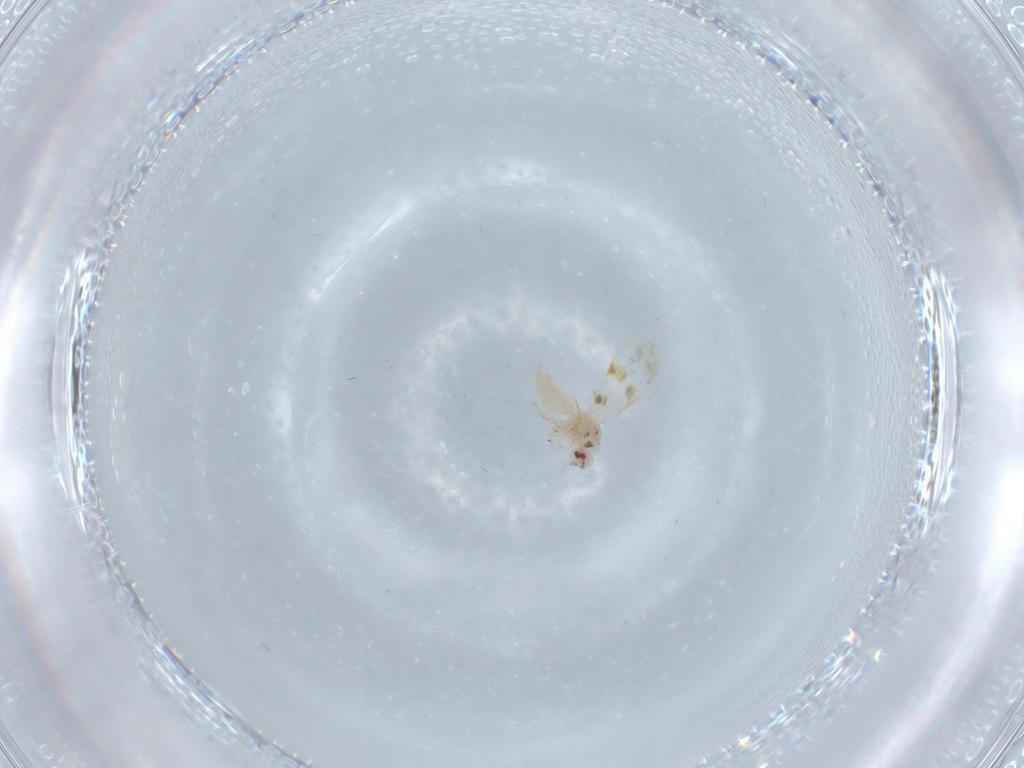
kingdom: Animalia
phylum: Arthropoda
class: Insecta
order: Hemiptera
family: Aleyrodidae
